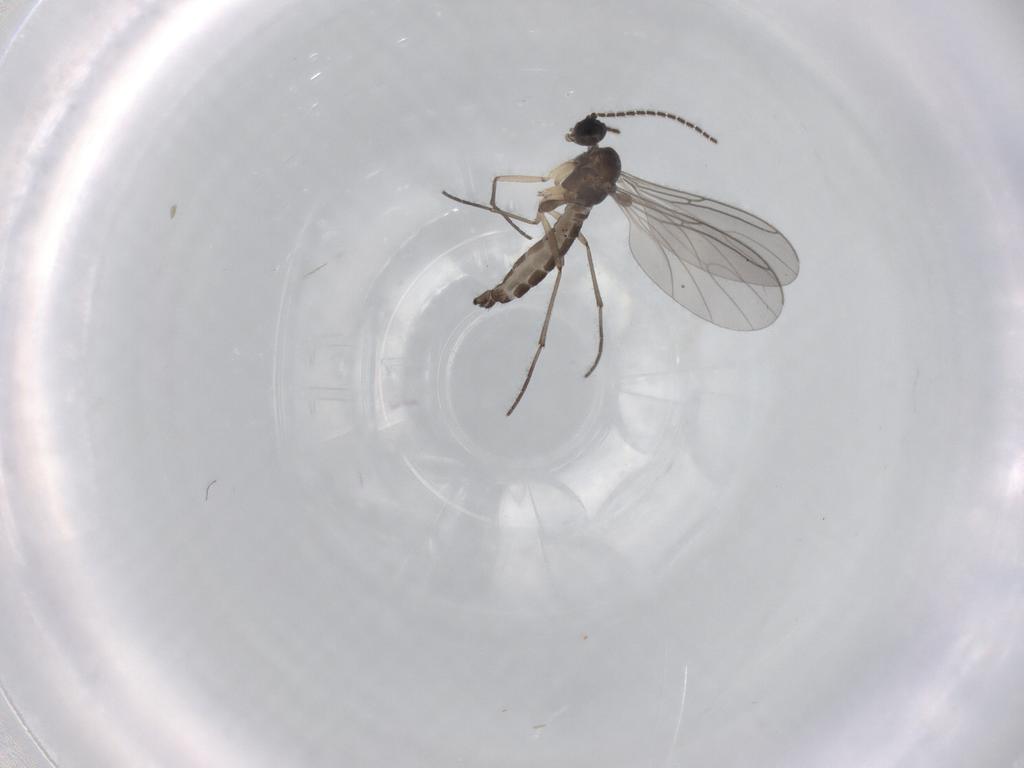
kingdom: Animalia
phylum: Arthropoda
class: Insecta
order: Diptera
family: Sciaridae
